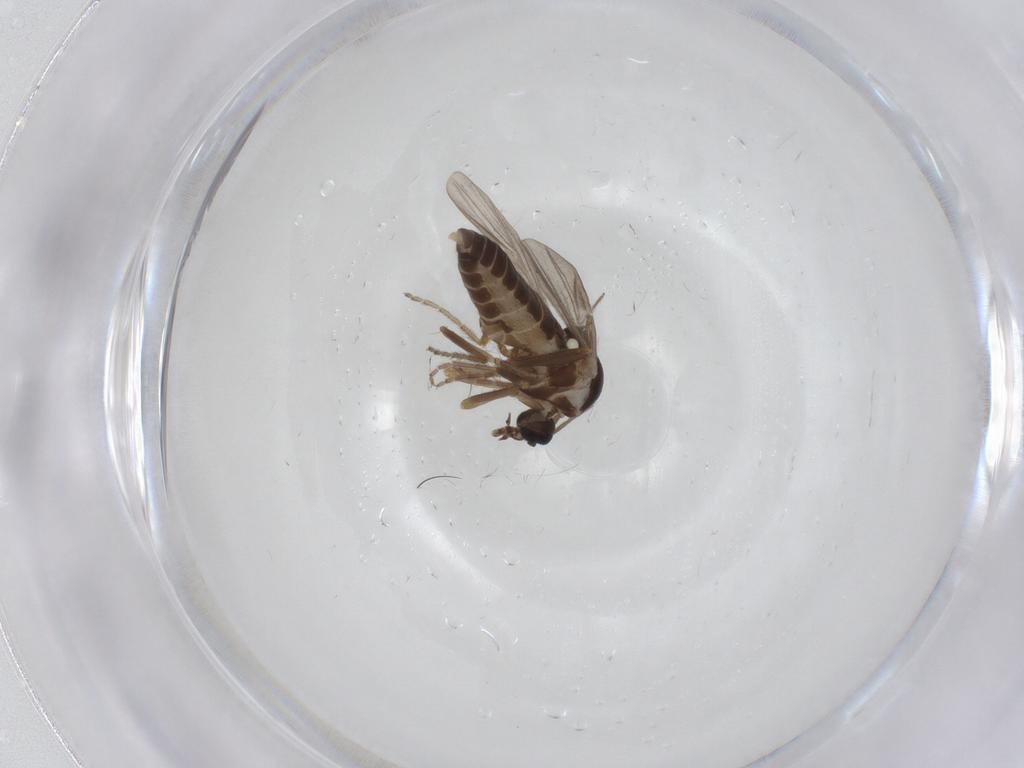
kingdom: Animalia
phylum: Arthropoda
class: Insecta
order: Diptera
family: Ceratopogonidae
